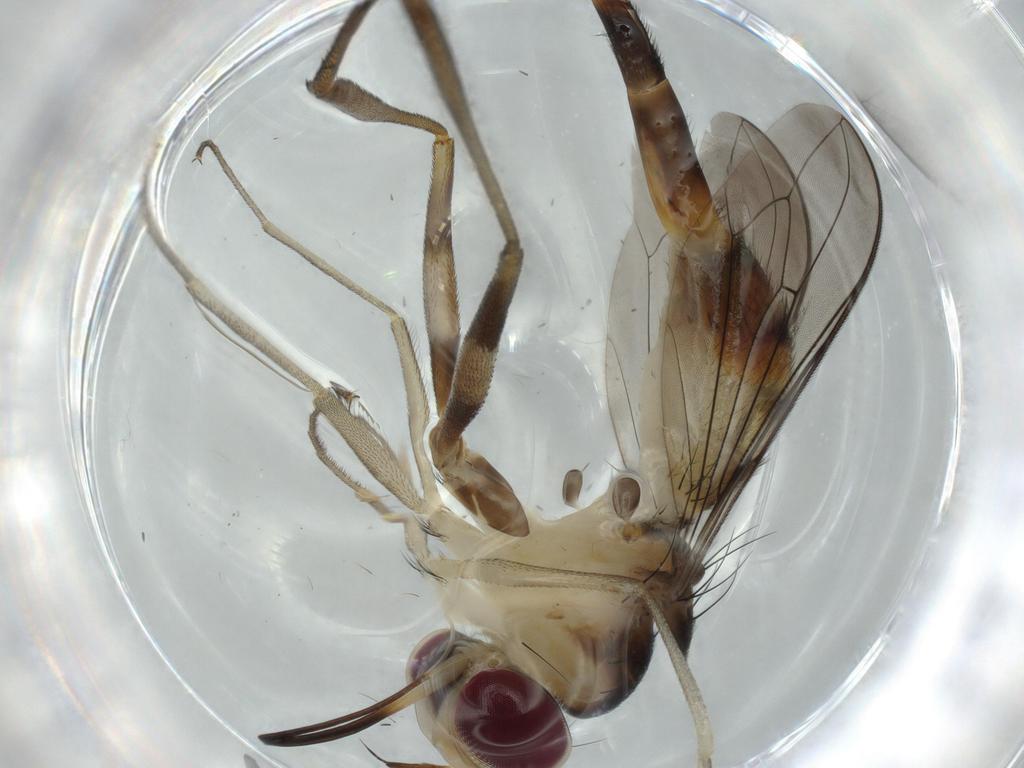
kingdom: Animalia
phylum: Arthropoda
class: Insecta
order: Diptera
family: Sciaridae
